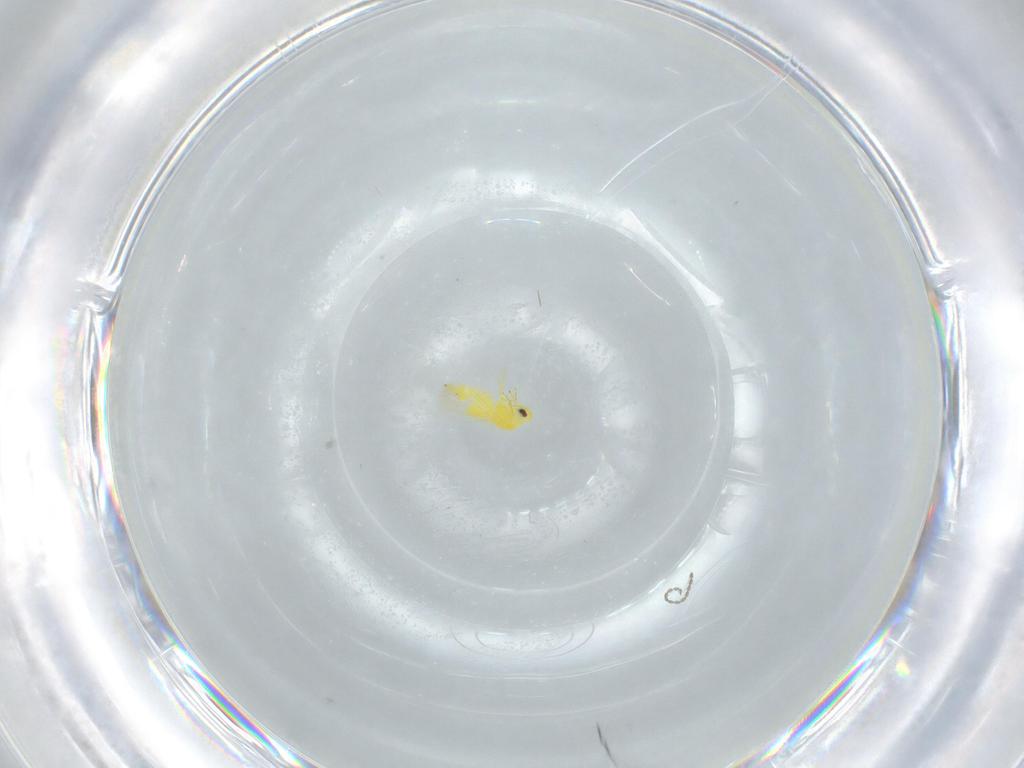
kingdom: Animalia
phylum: Arthropoda
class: Insecta
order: Hemiptera
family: Aleyrodidae
